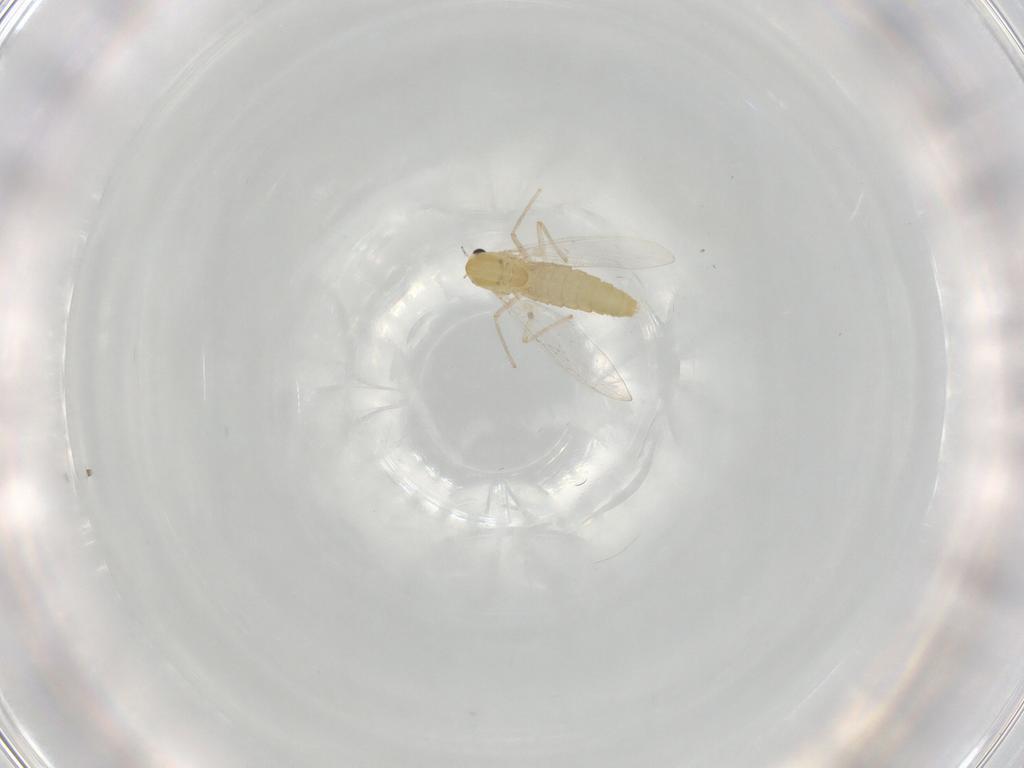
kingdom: Animalia
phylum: Arthropoda
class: Insecta
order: Diptera
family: Chironomidae
